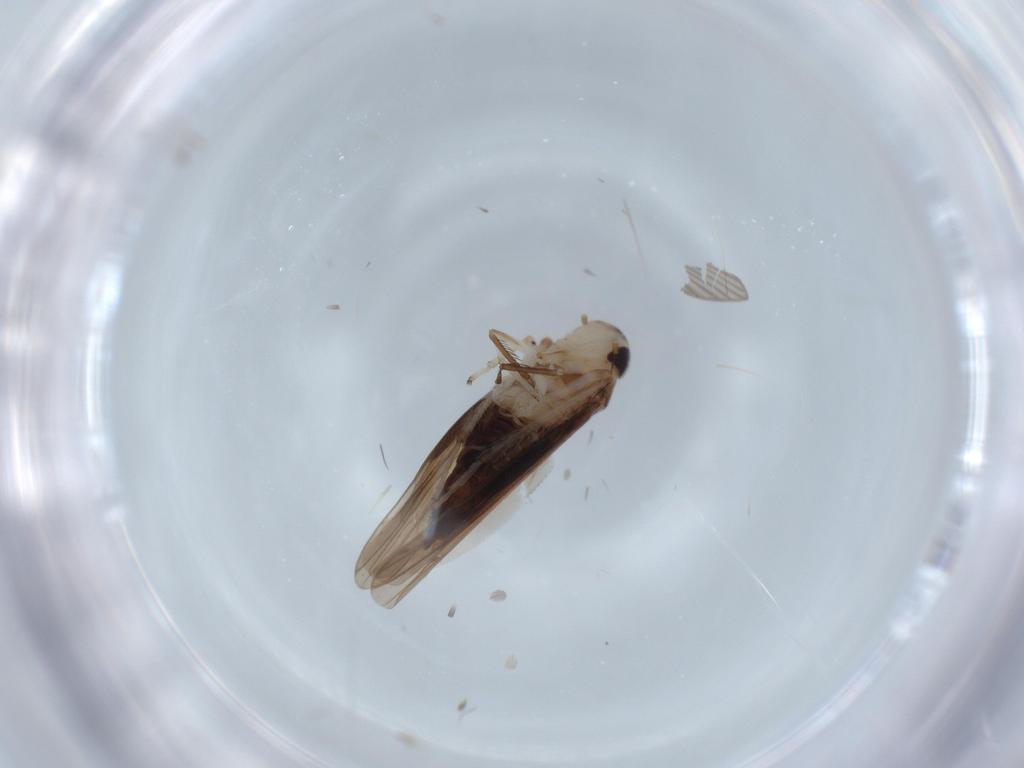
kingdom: Animalia
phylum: Arthropoda
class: Insecta
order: Hemiptera
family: Cicadellidae
